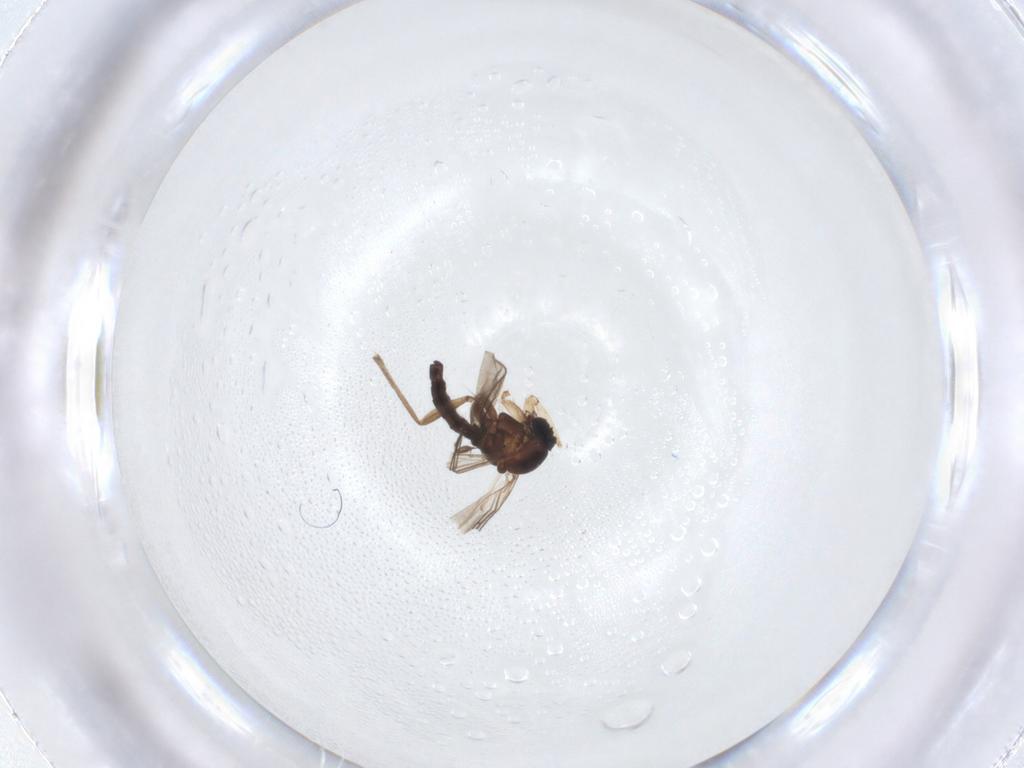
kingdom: Animalia
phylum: Arthropoda
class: Insecta
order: Diptera
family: Sciaridae
